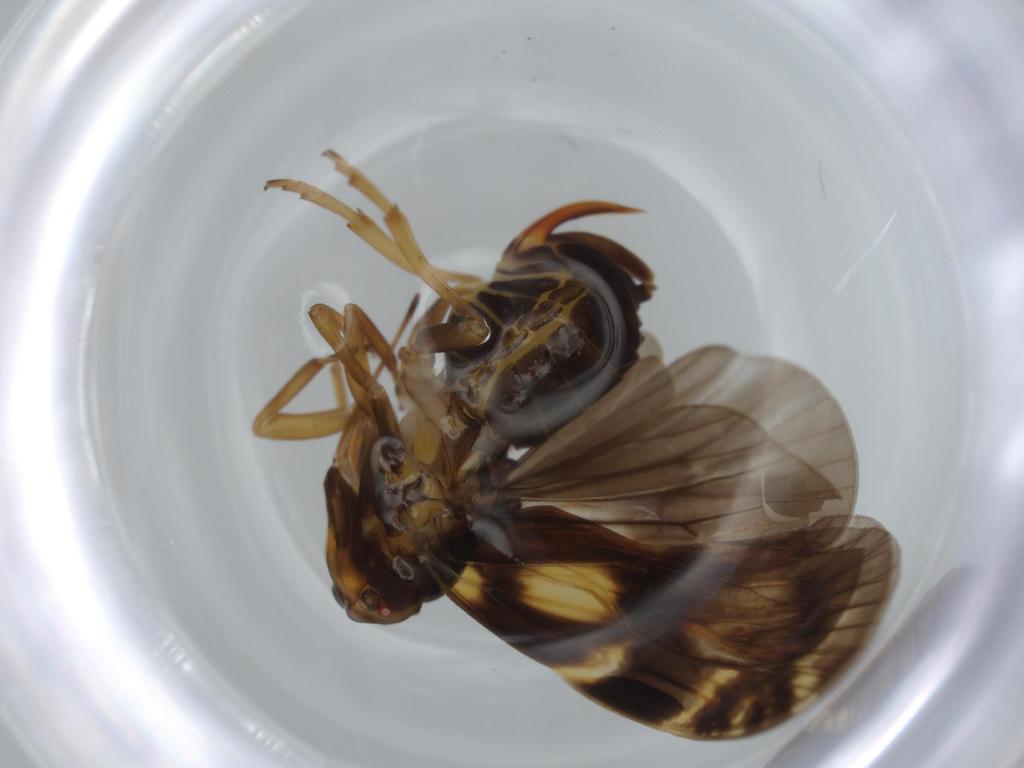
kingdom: Animalia
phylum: Arthropoda
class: Insecta
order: Hemiptera
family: Cixiidae
